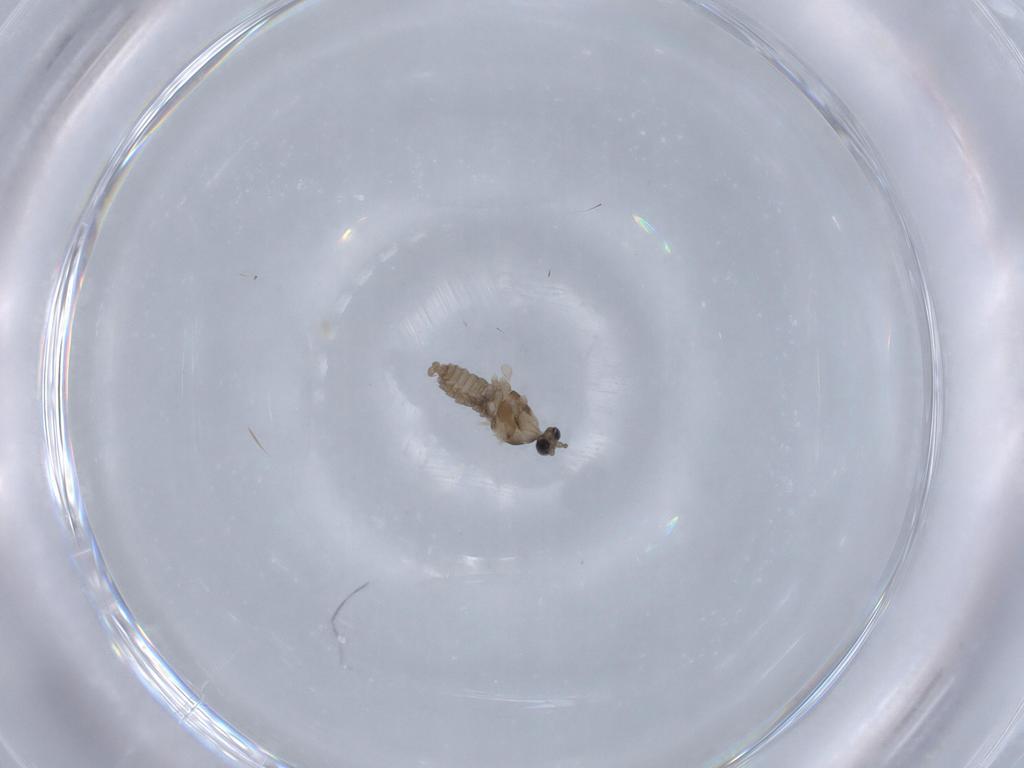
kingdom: Animalia
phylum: Arthropoda
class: Insecta
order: Diptera
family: Cecidomyiidae
